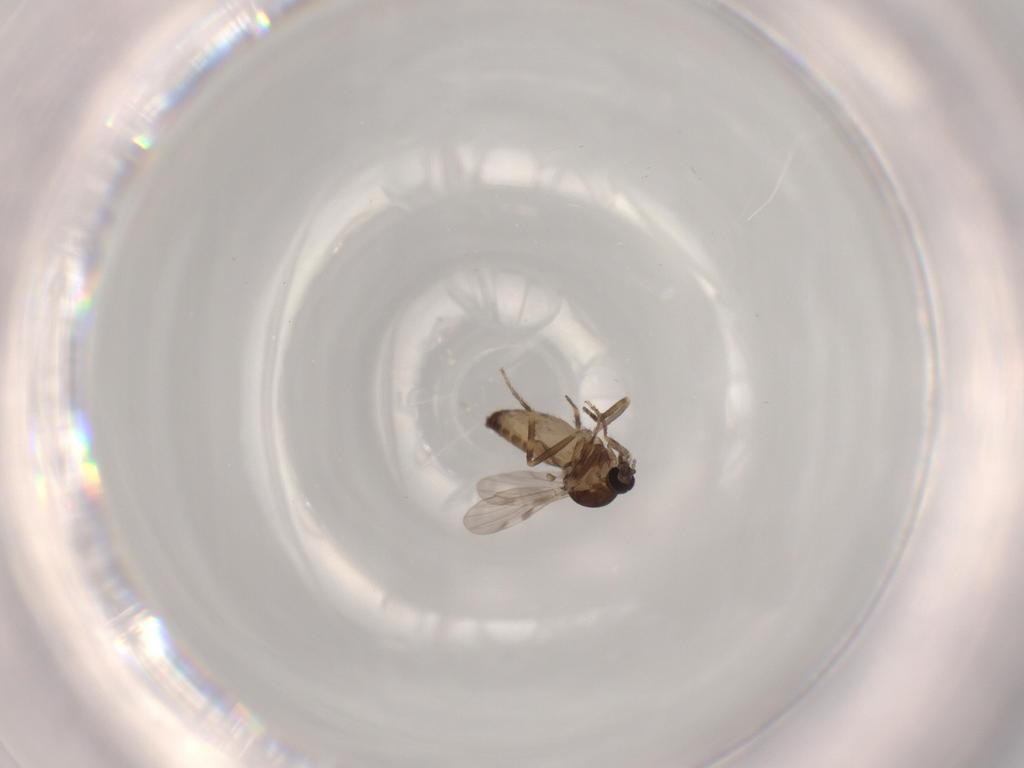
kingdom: Animalia
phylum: Arthropoda
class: Insecta
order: Diptera
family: Ceratopogonidae
